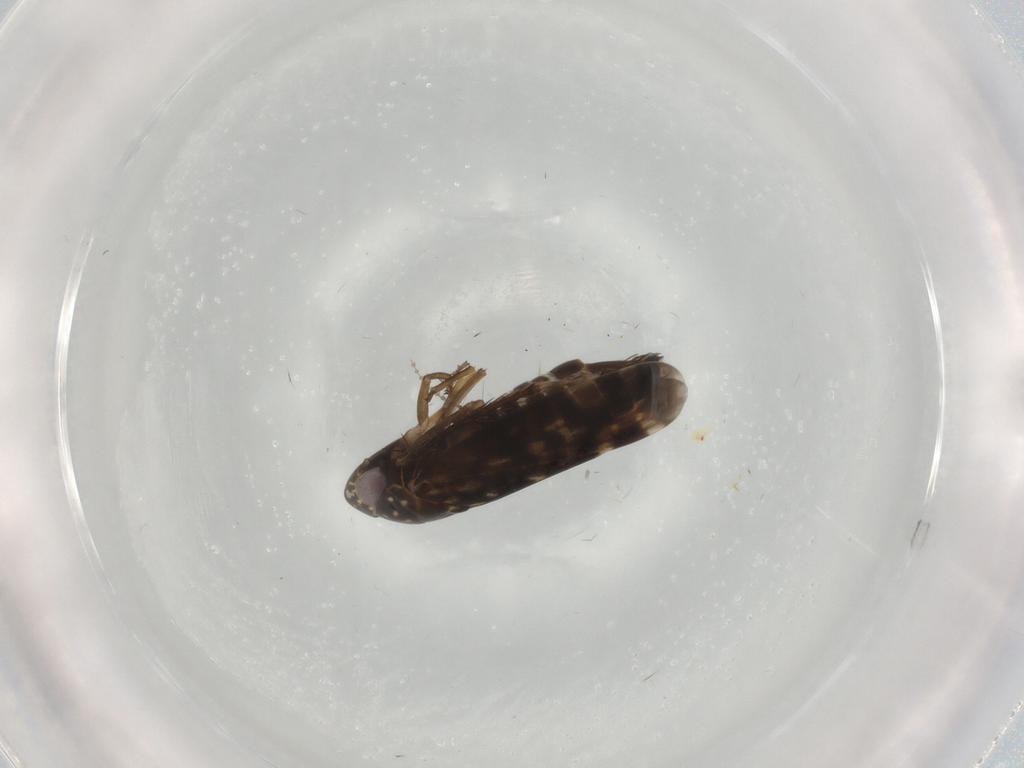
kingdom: Animalia
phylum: Arthropoda
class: Insecta
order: Hemiptera
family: Cicadellidae
